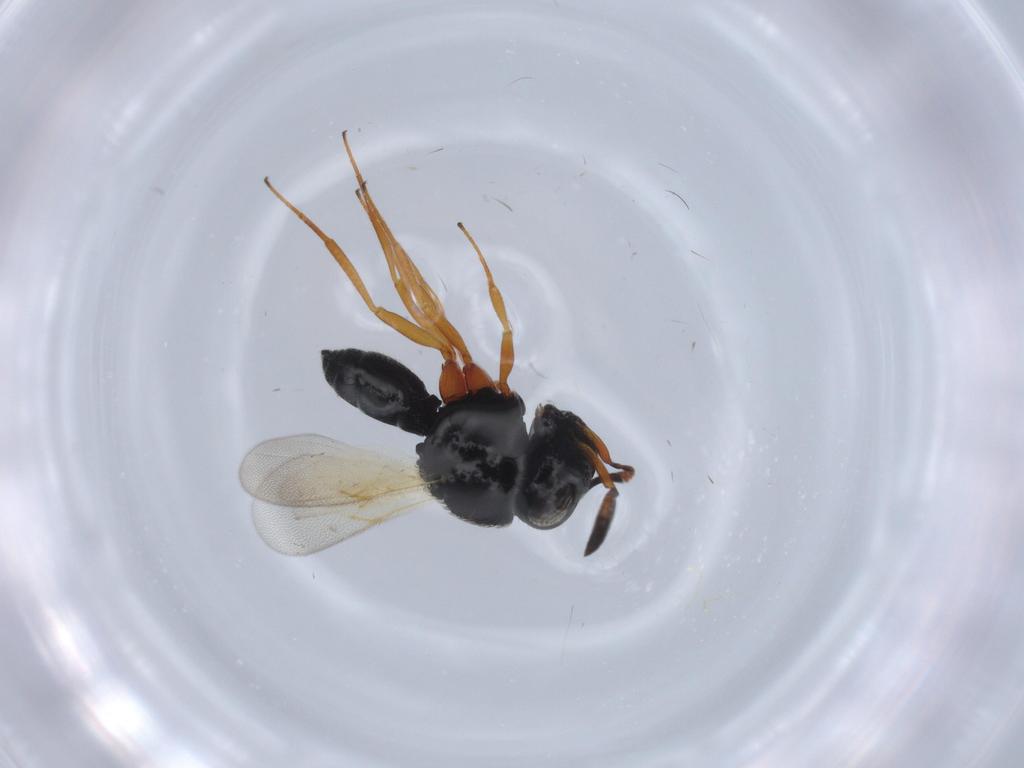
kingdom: Animalia
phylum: Arthropoda
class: Insecta
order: Hymenoptera
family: Scelionidae
